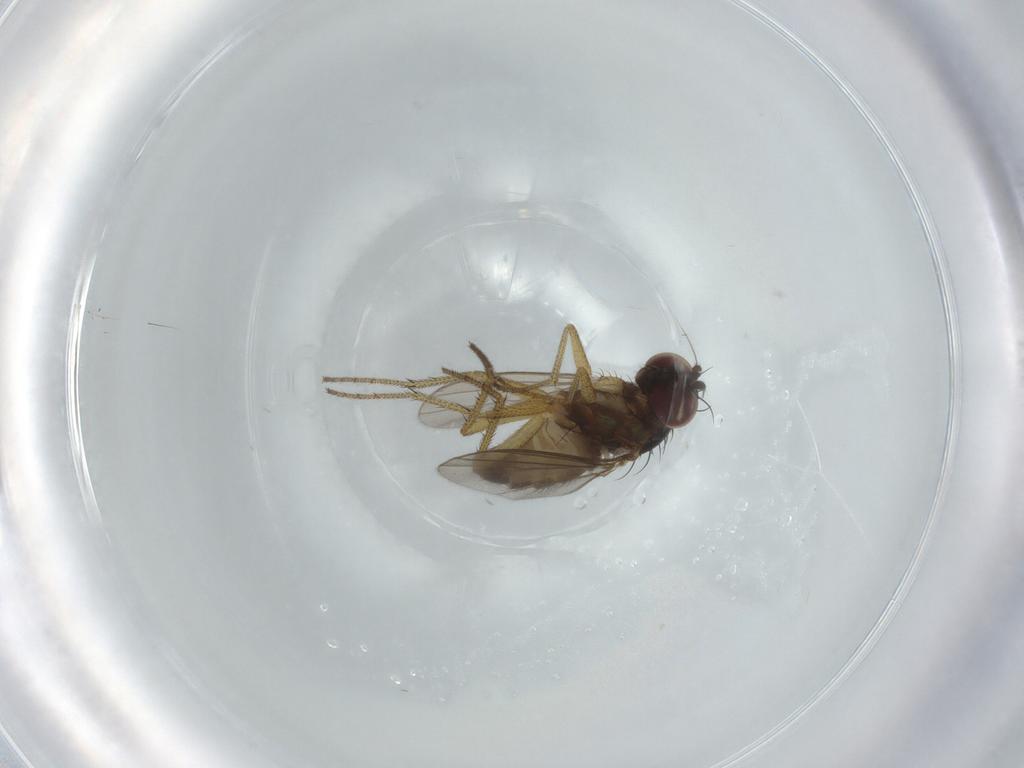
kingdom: Animalia
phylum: Arthropoda
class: Insecta
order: Diptera
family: Dolichopodidae
